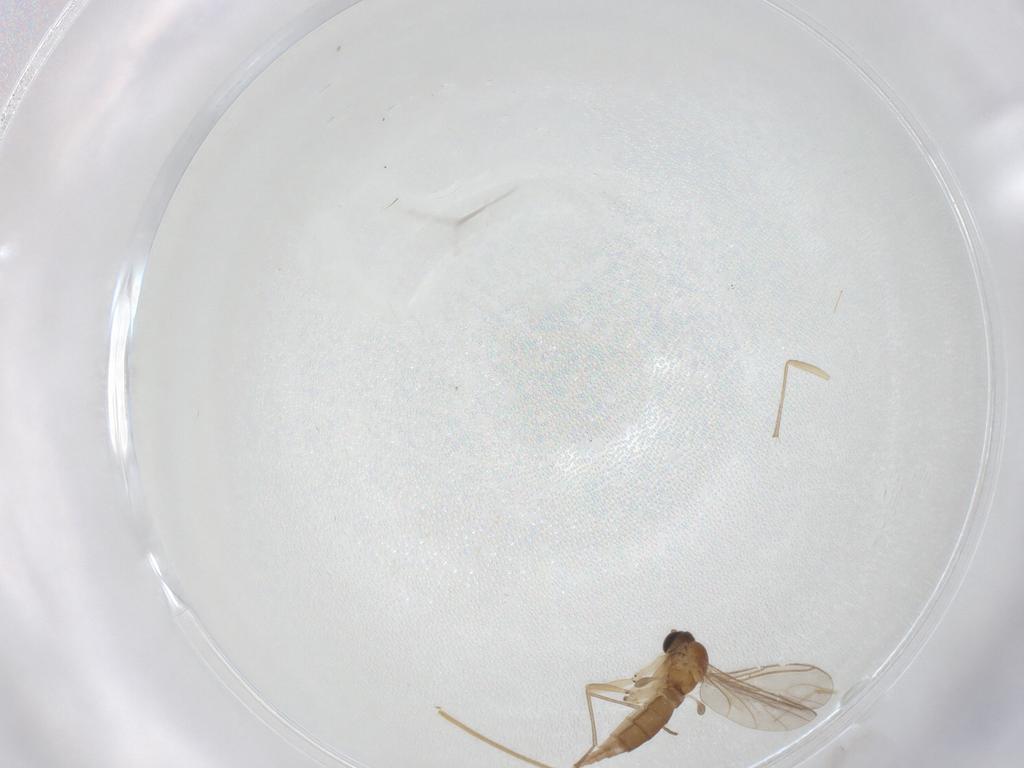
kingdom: Animalia
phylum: Arthropoda
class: Insecta
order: Diptera
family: Sciaridae
